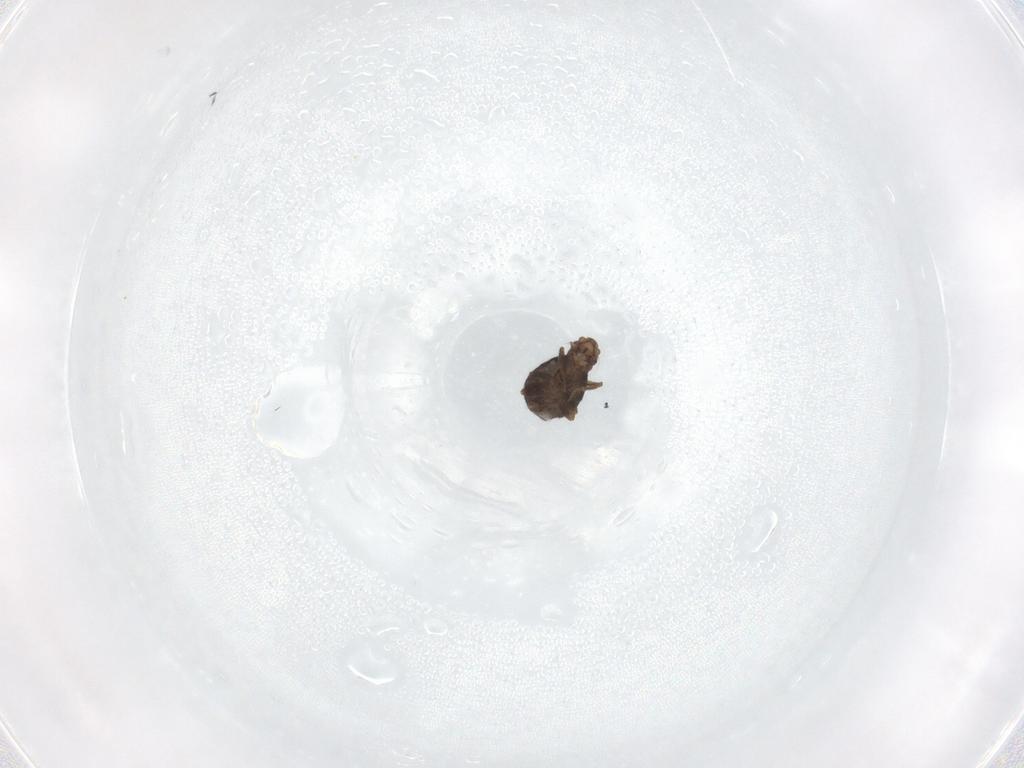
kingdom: Animalia
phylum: Arthropoda
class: Insecta
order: Diptera
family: Phoridae
